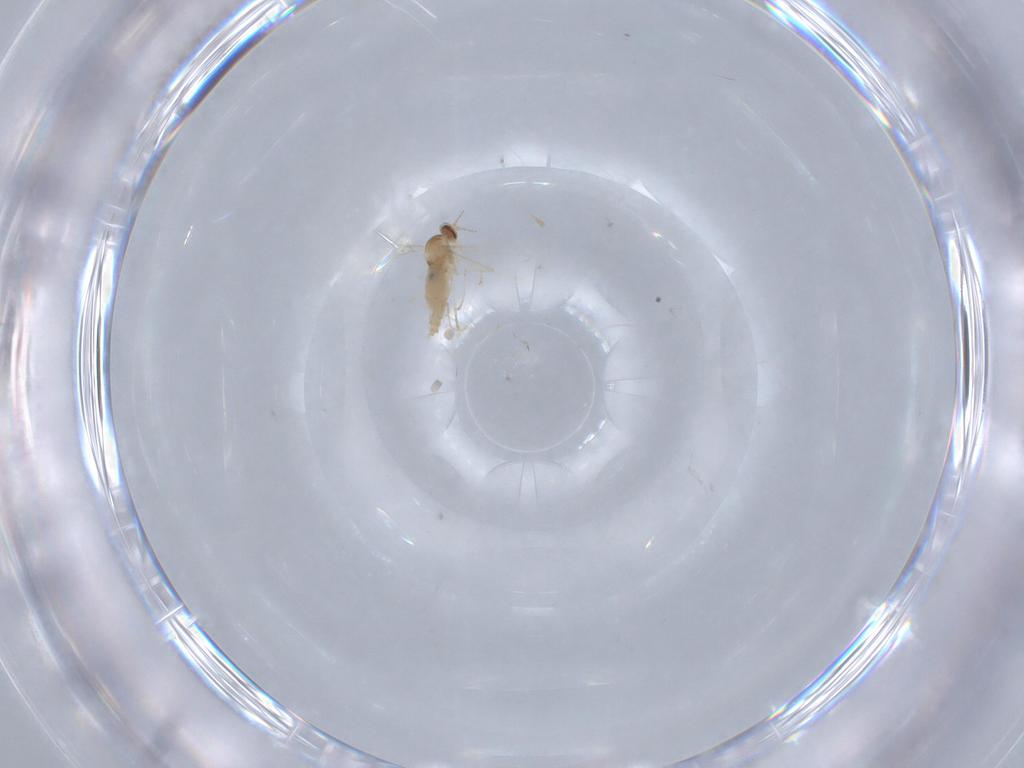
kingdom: Animalia
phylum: Arthropoda
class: Insecta
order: Diptera
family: Cecidomyiidae
